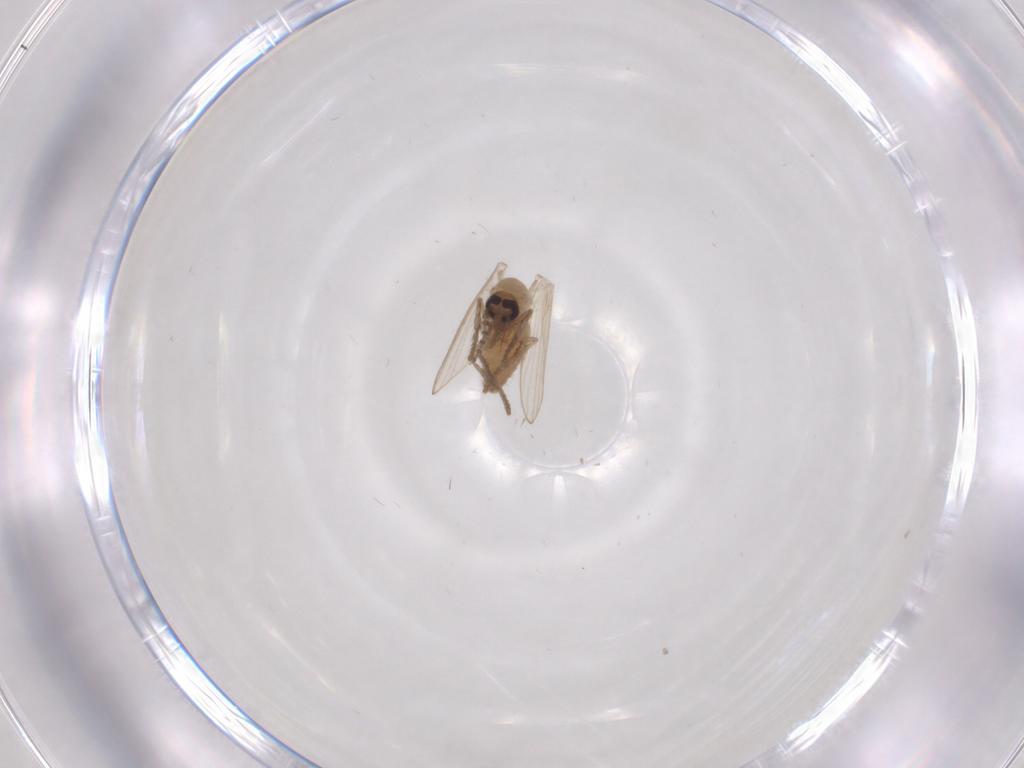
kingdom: Animalia
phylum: Arthropoda
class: Insecta
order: Diptera
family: Psychodidae
